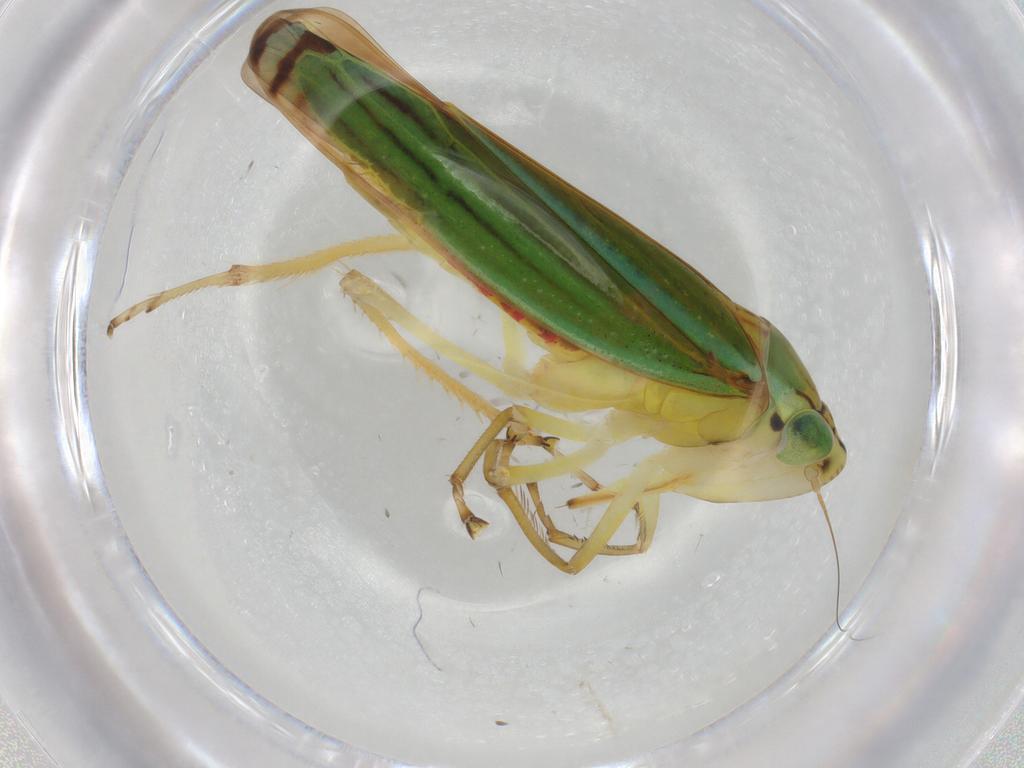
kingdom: Animalia
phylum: Arthropoda
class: Insecta
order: Hemiptera
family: Cicadellidae
